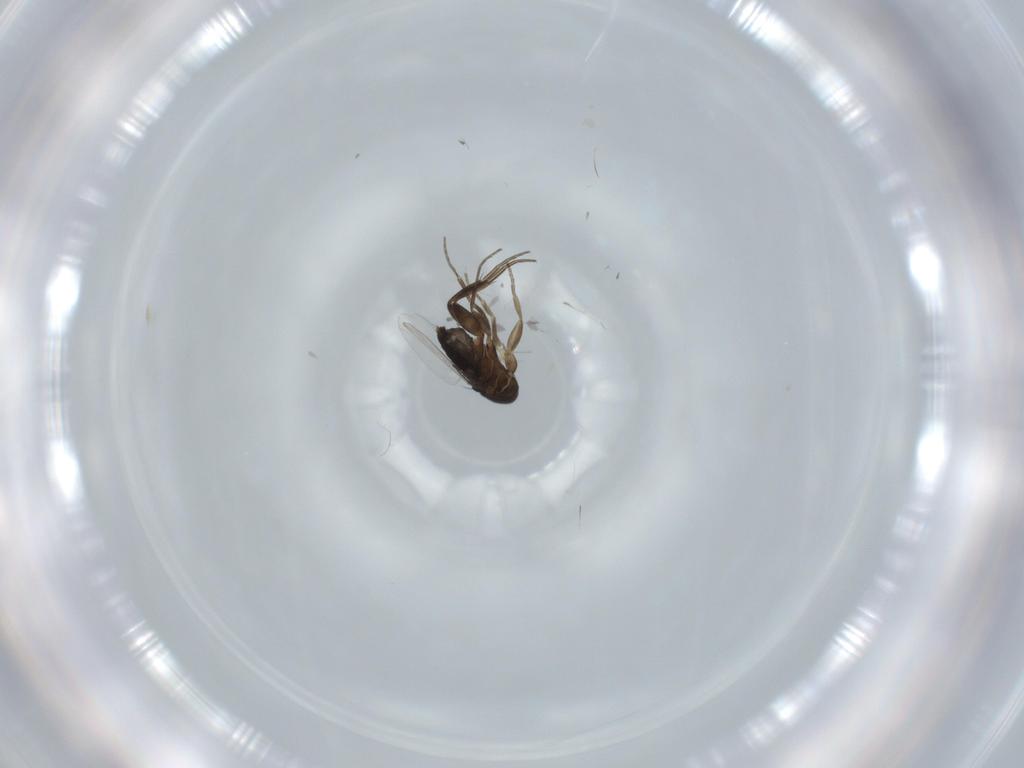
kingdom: Animalia
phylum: Arthropoda
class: Insecta
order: Diptera
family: Phoridae
